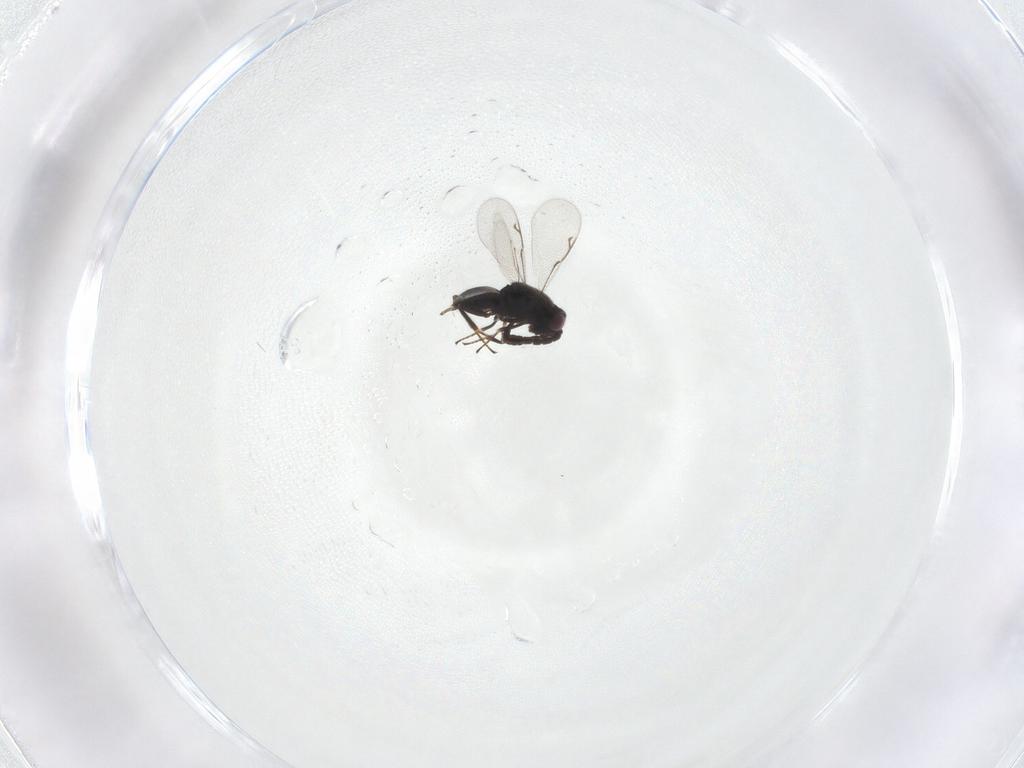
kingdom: Animalia
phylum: Arthropoda
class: Insecta
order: Hymenoptera
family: Eunotidae
